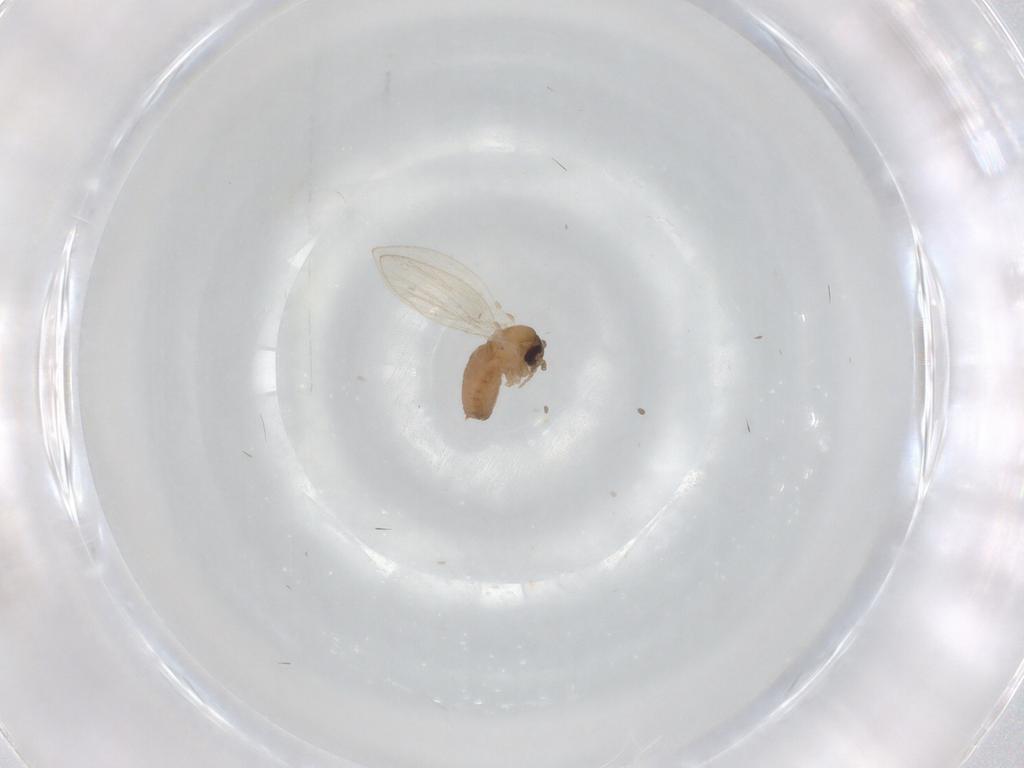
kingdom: Animalia
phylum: Arthropoda
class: Insecta
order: Diptera
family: Psychodidae
